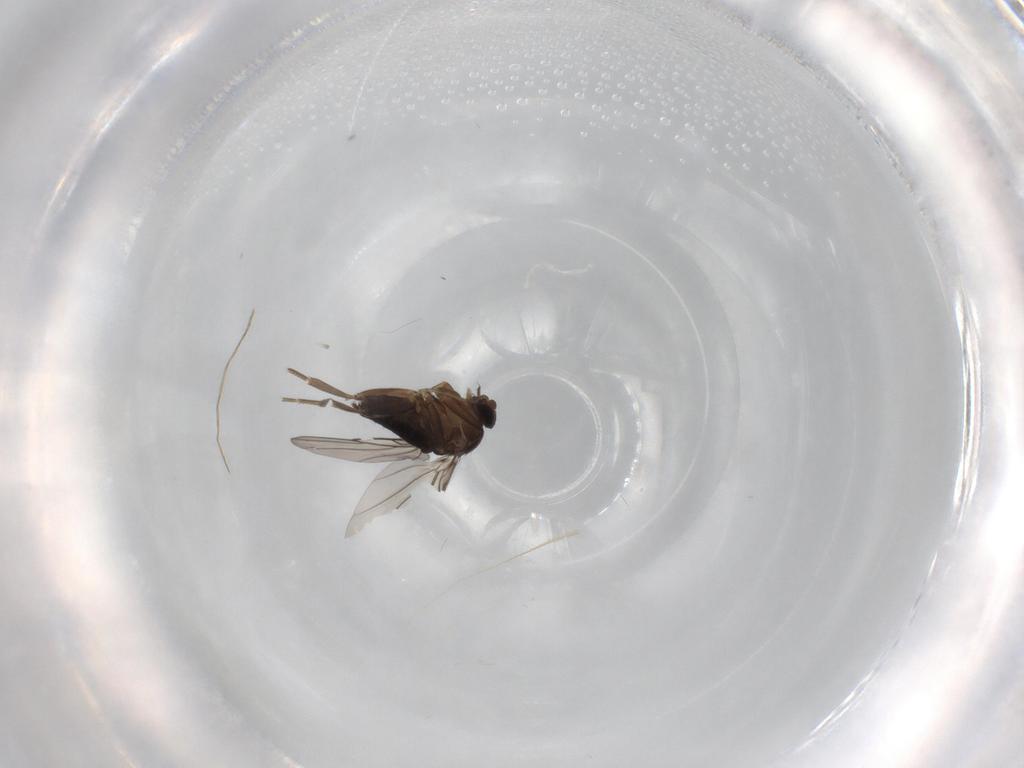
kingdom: Animalia
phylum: Arthropoda
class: Insecta
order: Diptera
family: Phoridae
